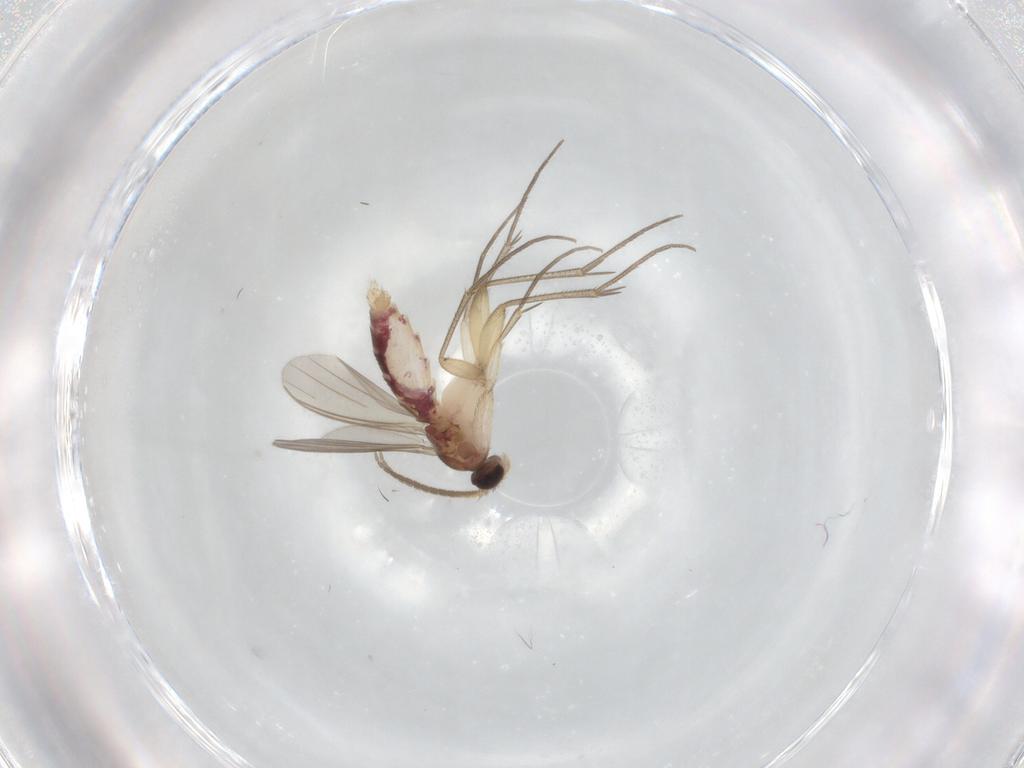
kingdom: Animalia
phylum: Arthropoda
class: Insecta
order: Diptera
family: Mycetophilidae
